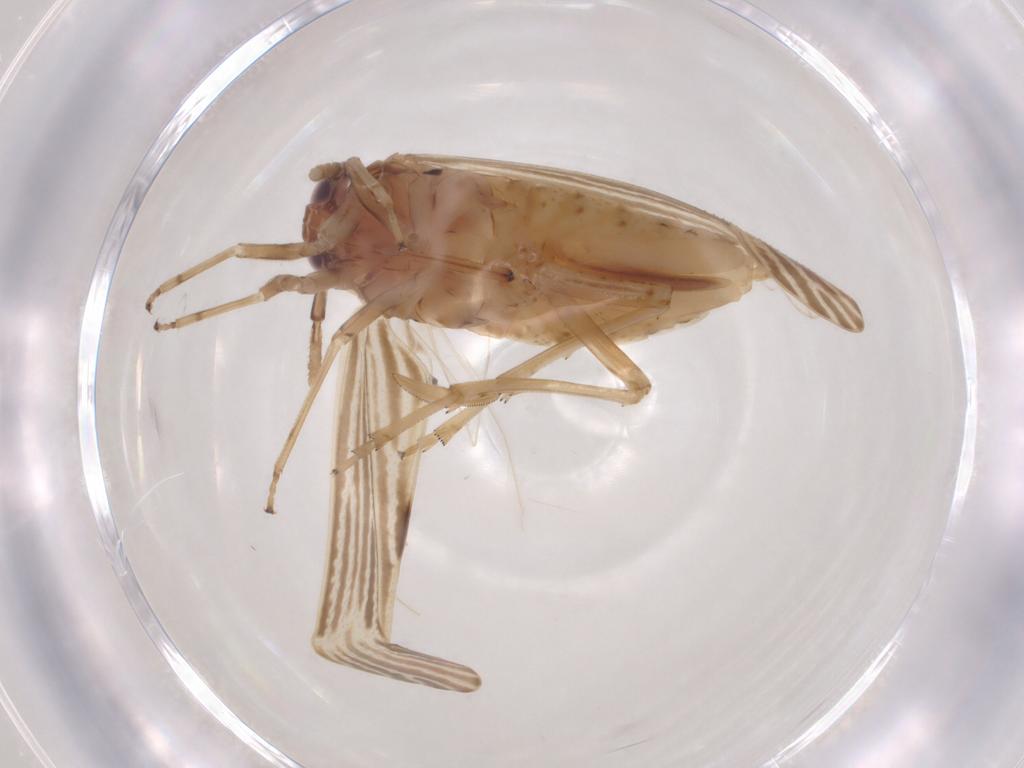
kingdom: Animalia
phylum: Arthropoda
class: Insecta
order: Diptera
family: Pipunculidae
